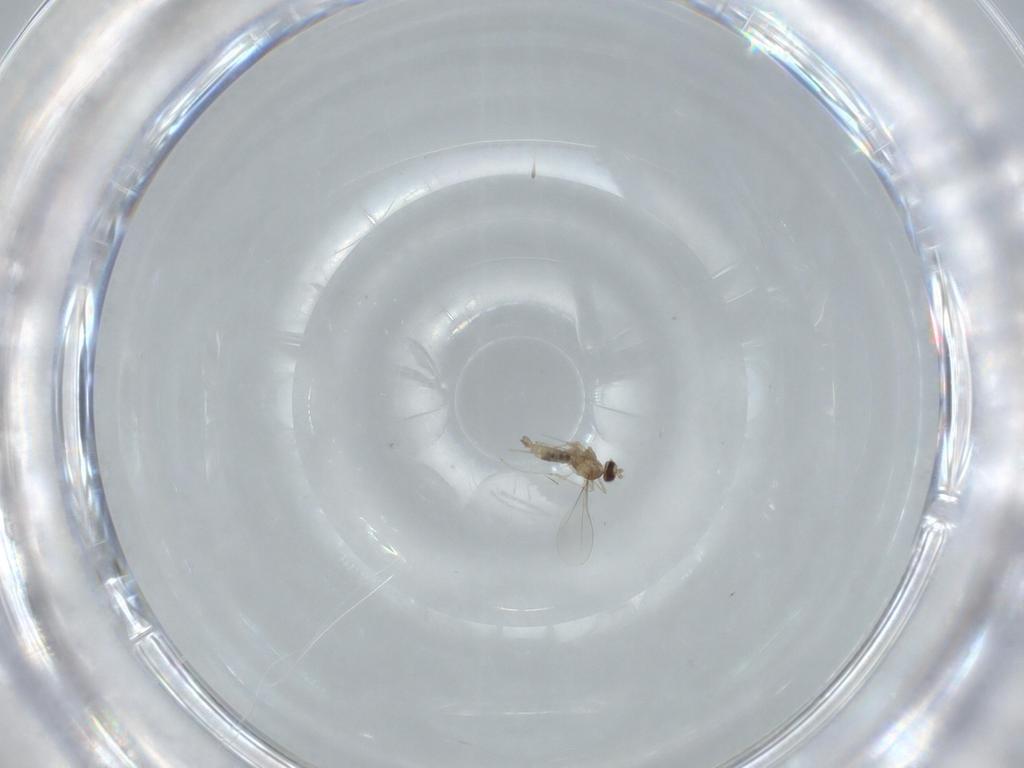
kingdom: Animalia
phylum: Arthropoda
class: Insecta
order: Diptera
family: Cecidomyiidae
